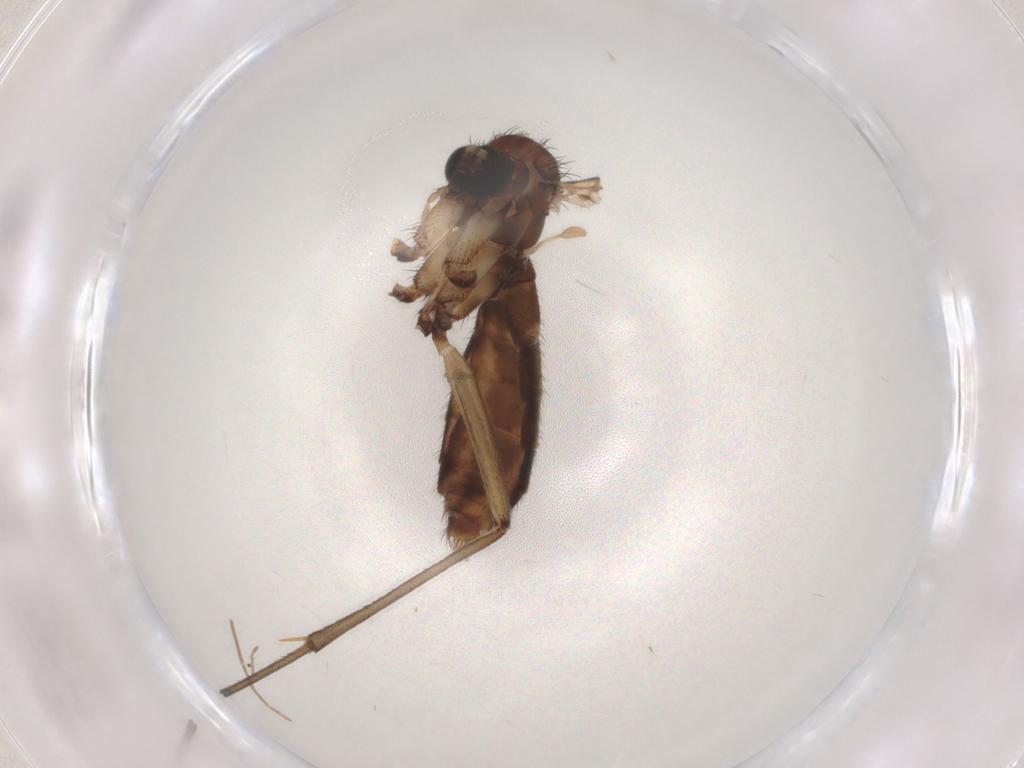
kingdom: Animalia
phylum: Arthropoda
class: Insecta
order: Diptera
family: Mycetophilidae
